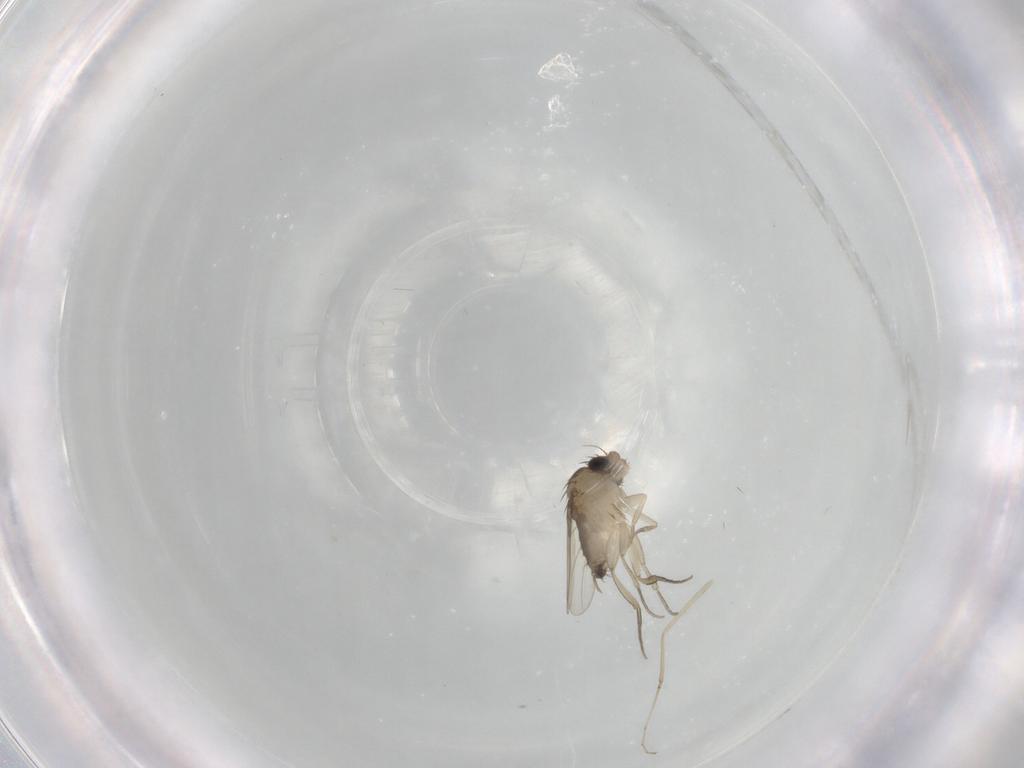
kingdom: Animalia
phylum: Arthropoda
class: Insecta
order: Diptera
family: Phoridae
